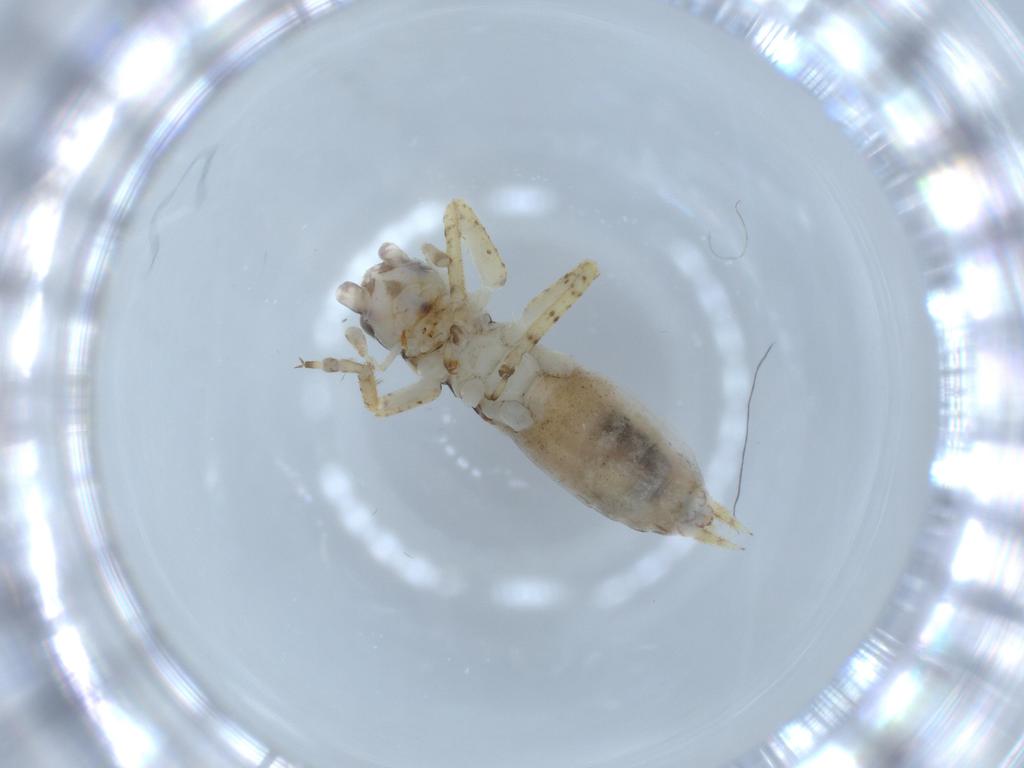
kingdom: Animalia
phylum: Arthropoda
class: Insecta
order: Orthoptera
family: Gryllidae
